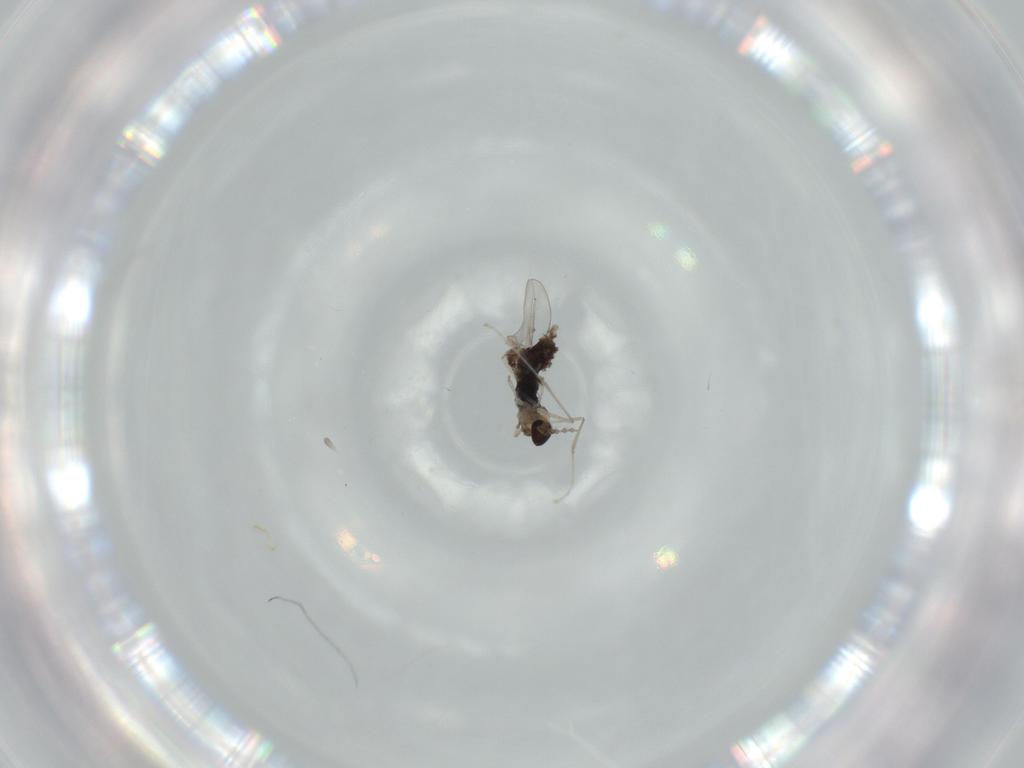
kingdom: Animalia
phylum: Arthropoda
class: Insecta
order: Diptera
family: Cecidomyiidae
